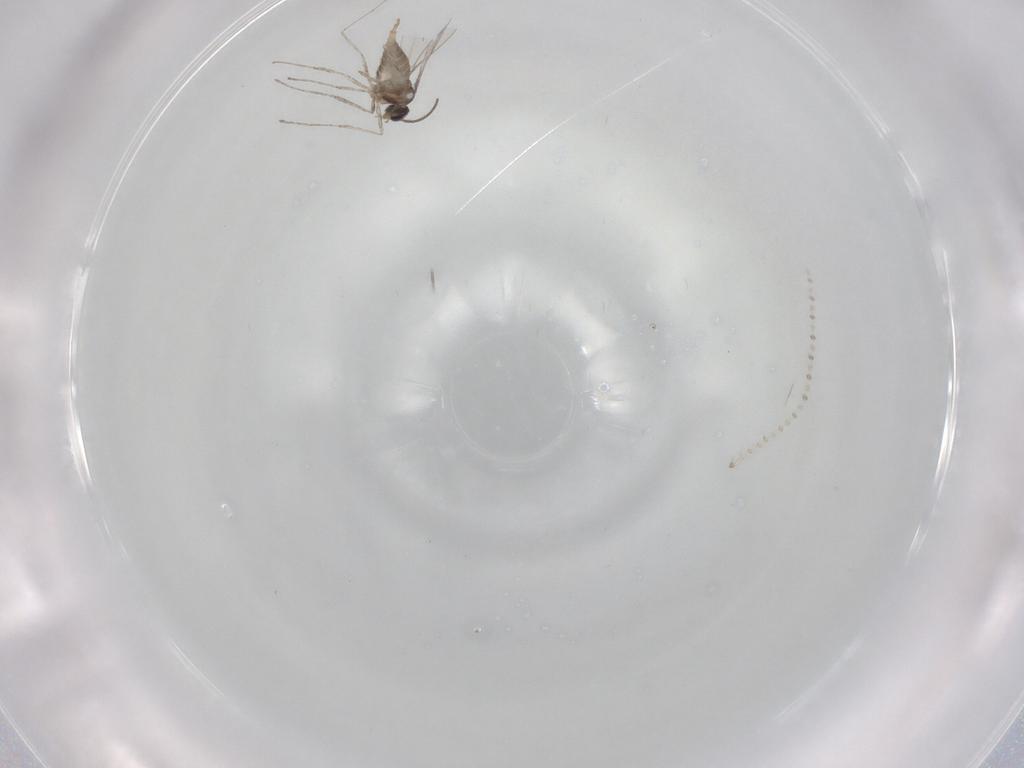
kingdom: Animalia
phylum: Arthropoda
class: Insecta
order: Diptera
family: Cecidomyiidae
